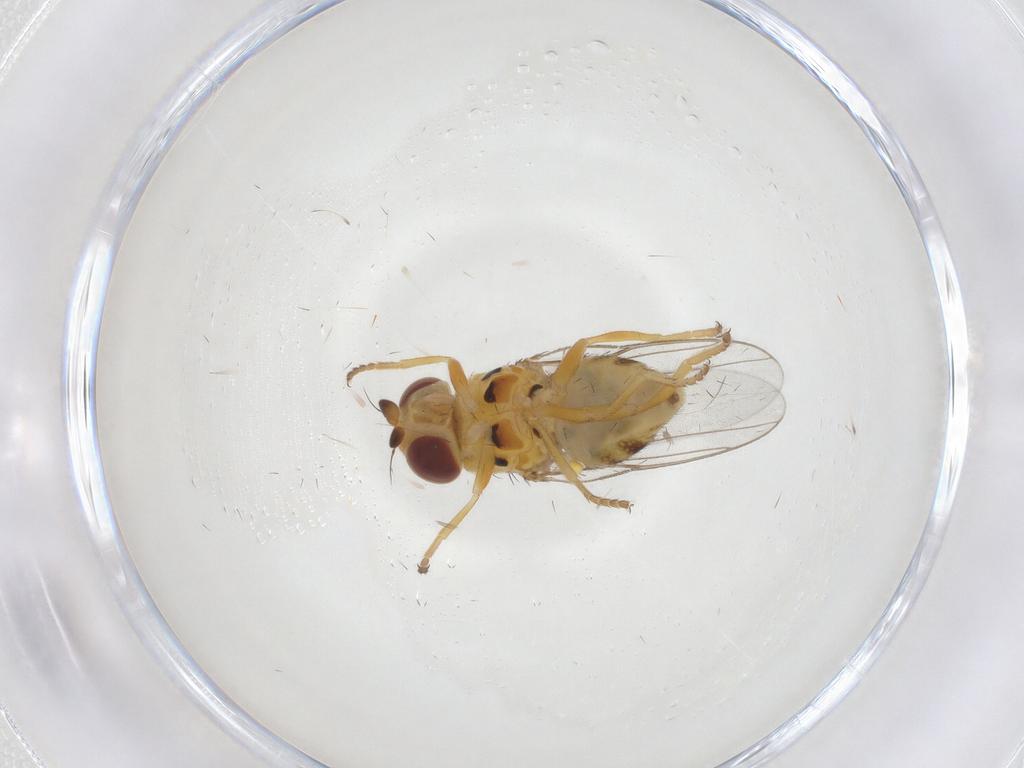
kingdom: Animalia
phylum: Arthropoda
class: Insecta
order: Diptera
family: Chloropidae
